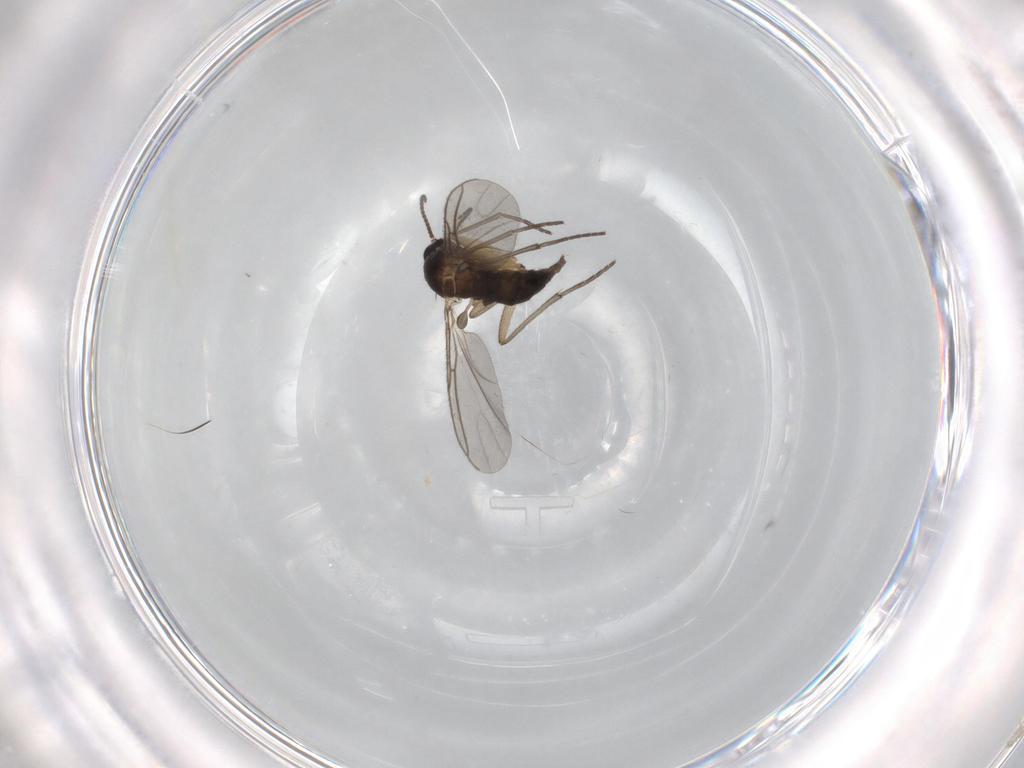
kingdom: Animalia
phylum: Arthropoda
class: Insecta
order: Diptera
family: Sciaridae
